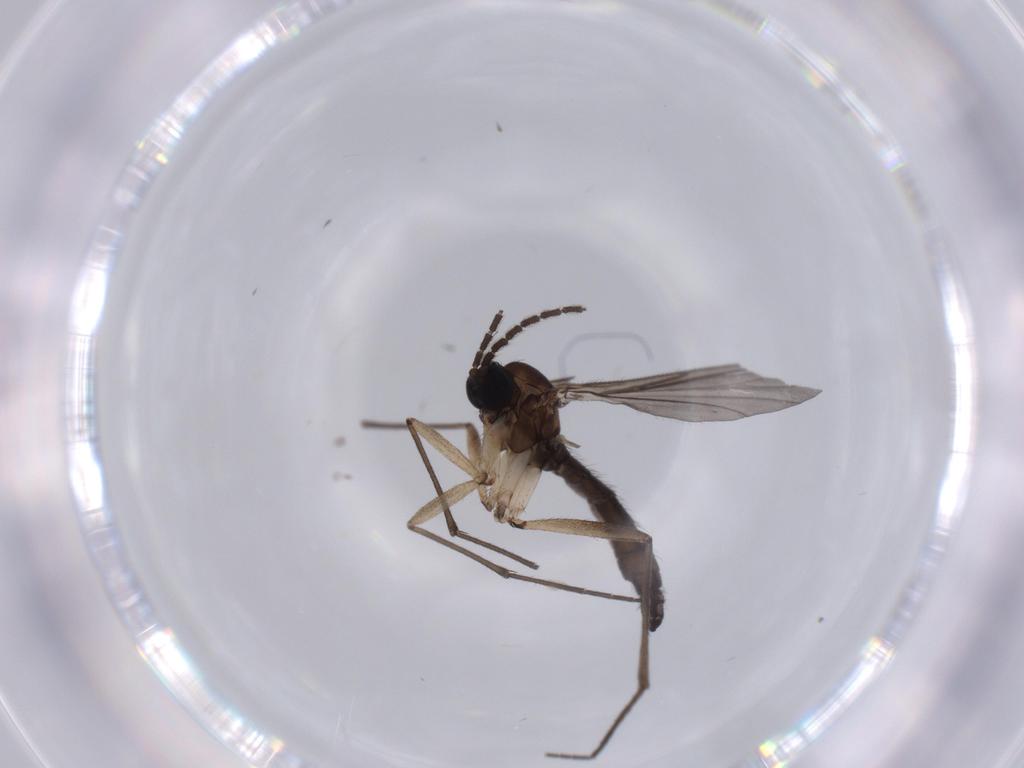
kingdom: Animalia
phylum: Arthropoda
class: Insecta
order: Diptera
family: Sciaridae
